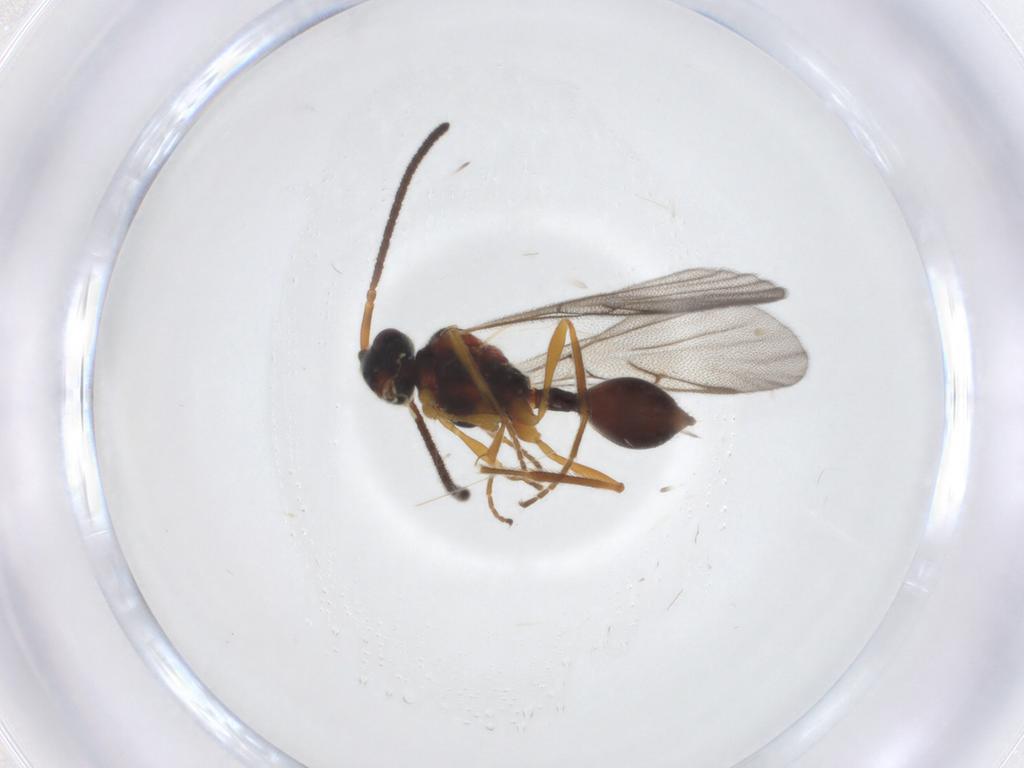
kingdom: Animalia
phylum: Arthropoda
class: Insecta
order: Hymenoptera
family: Diapriidae
